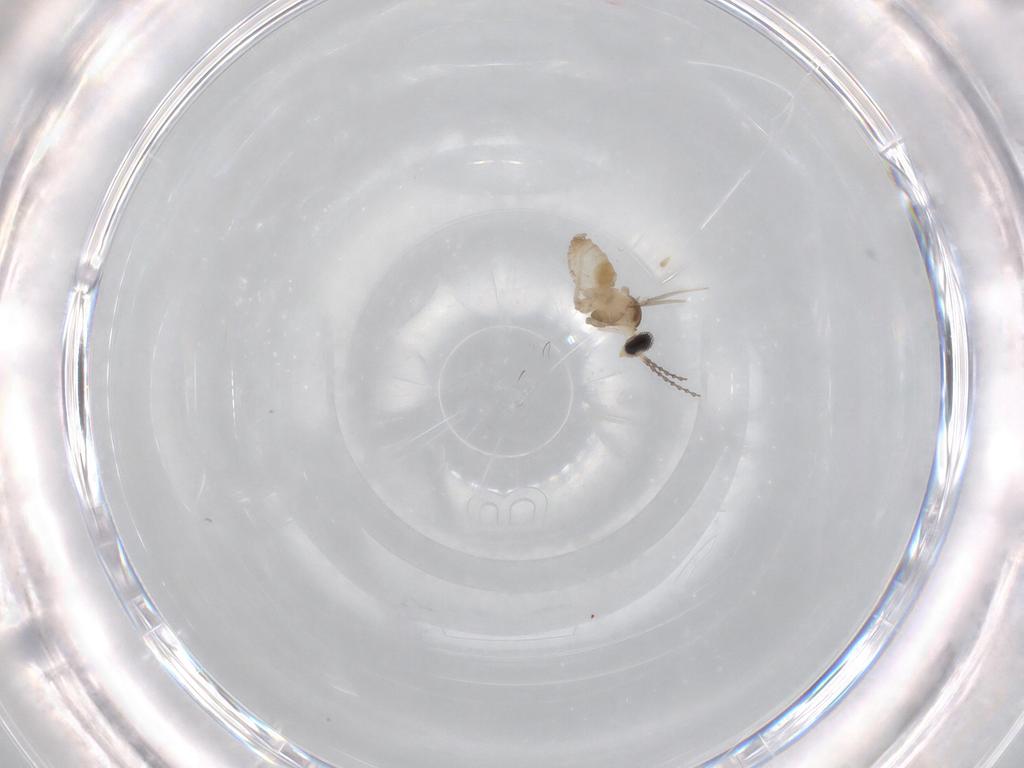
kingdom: Animalia
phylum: Arthropoda
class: Insecta
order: Diptera
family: Cecidomyiidae
